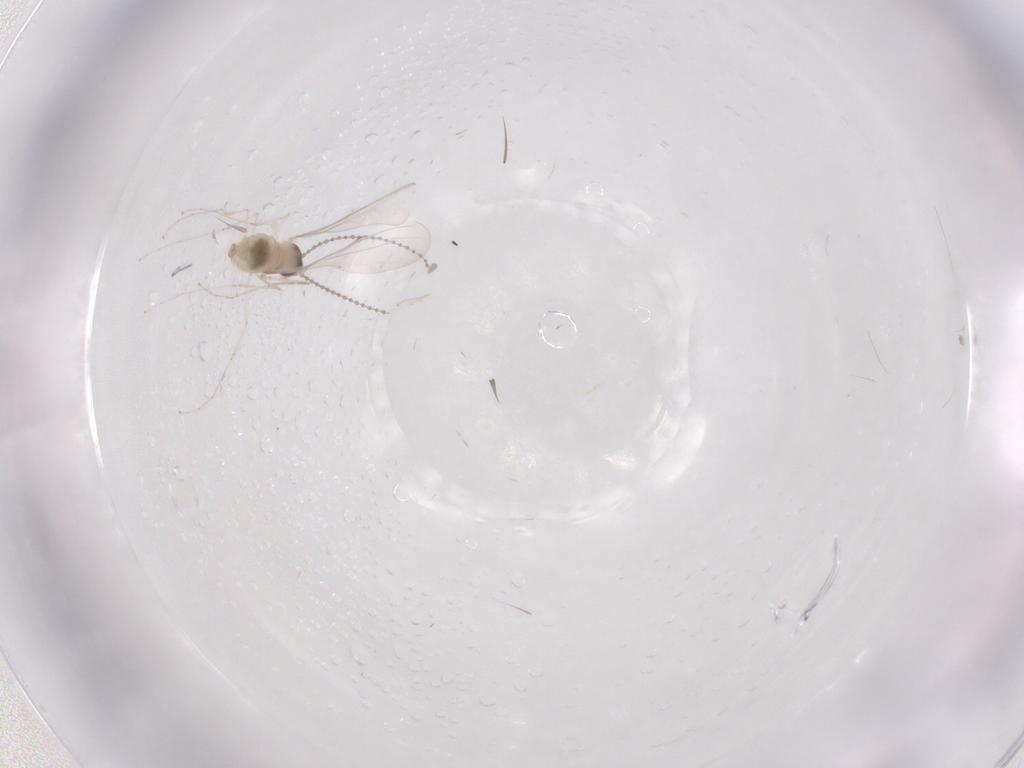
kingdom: Animalia
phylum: Arthropoda
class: Insecta
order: Diptera
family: Cecidomyiidae
